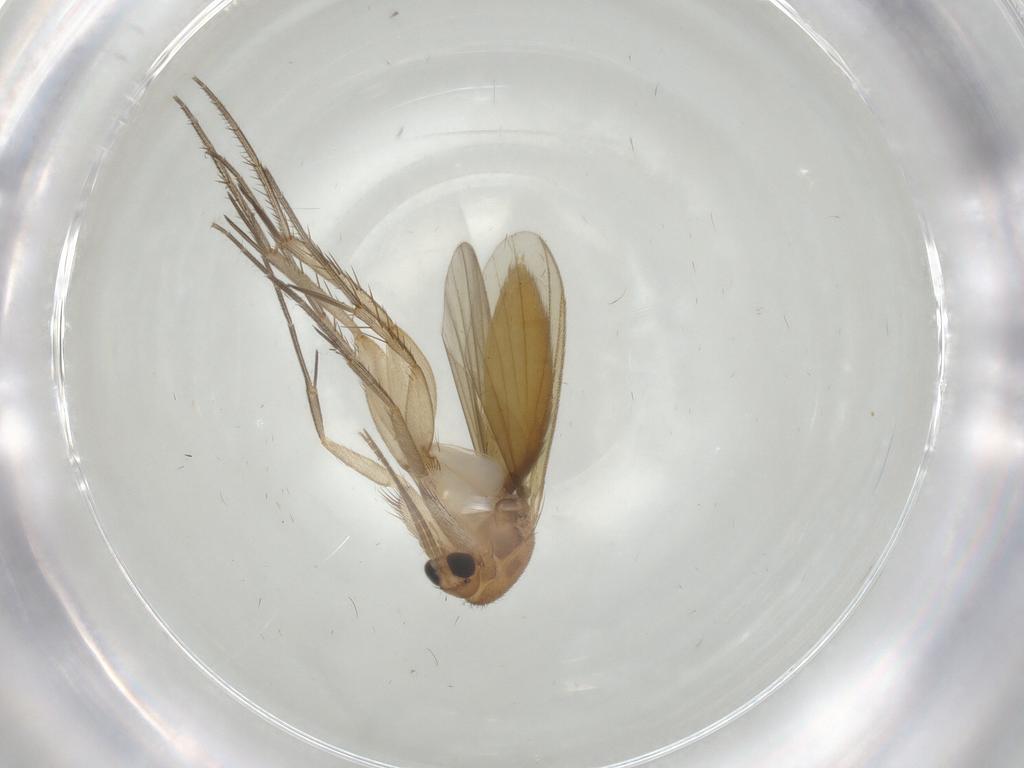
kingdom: Animalia
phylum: Arthropoda
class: Insecta
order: Diptera
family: Mycetophilidae
